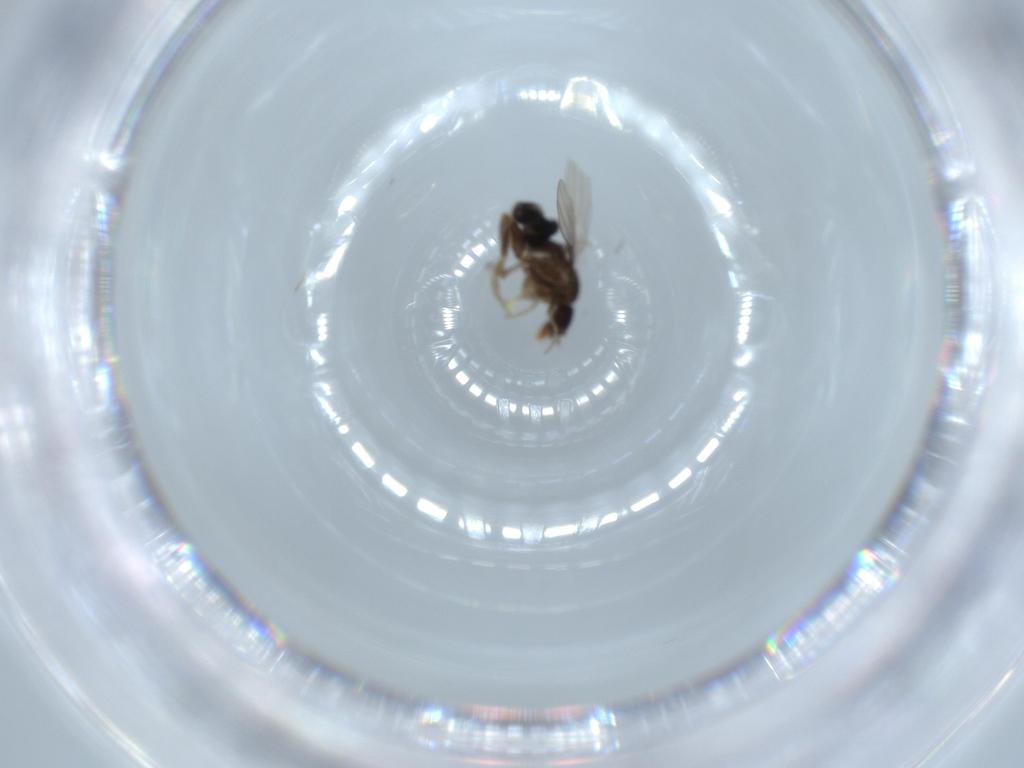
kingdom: Animalia
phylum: Arthropoda
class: Insecta
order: Diptera
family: Phoridae
